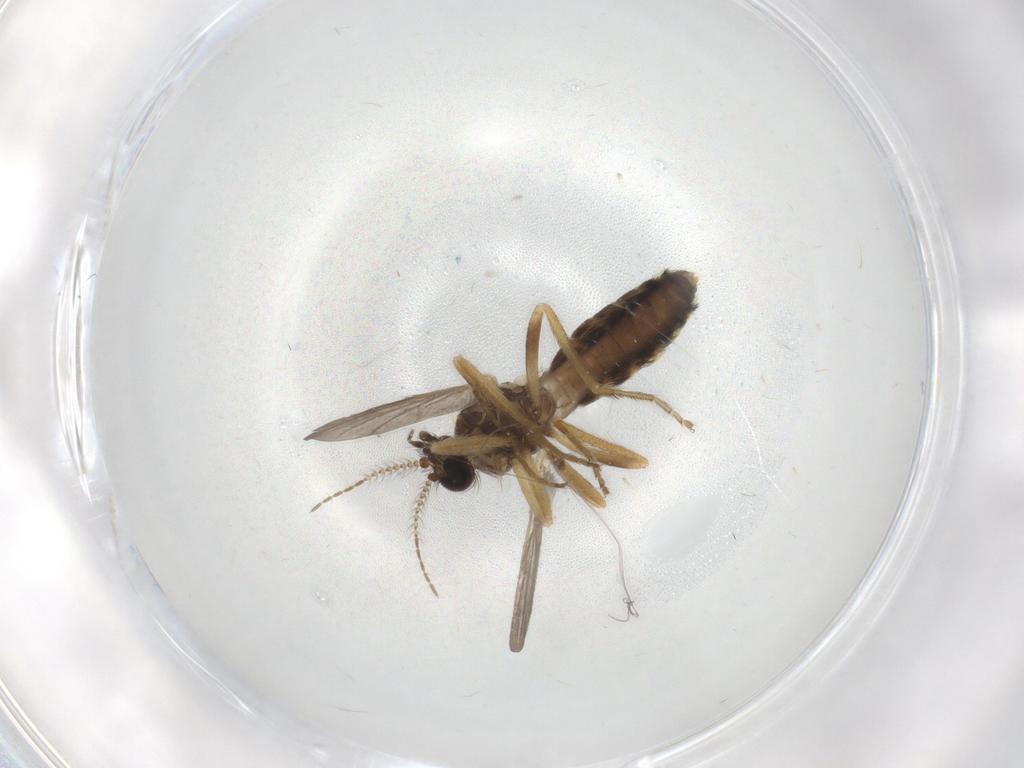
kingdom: Animalia
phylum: Arthropoda
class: Insecta
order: Diptera
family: Ceratopogonidae
